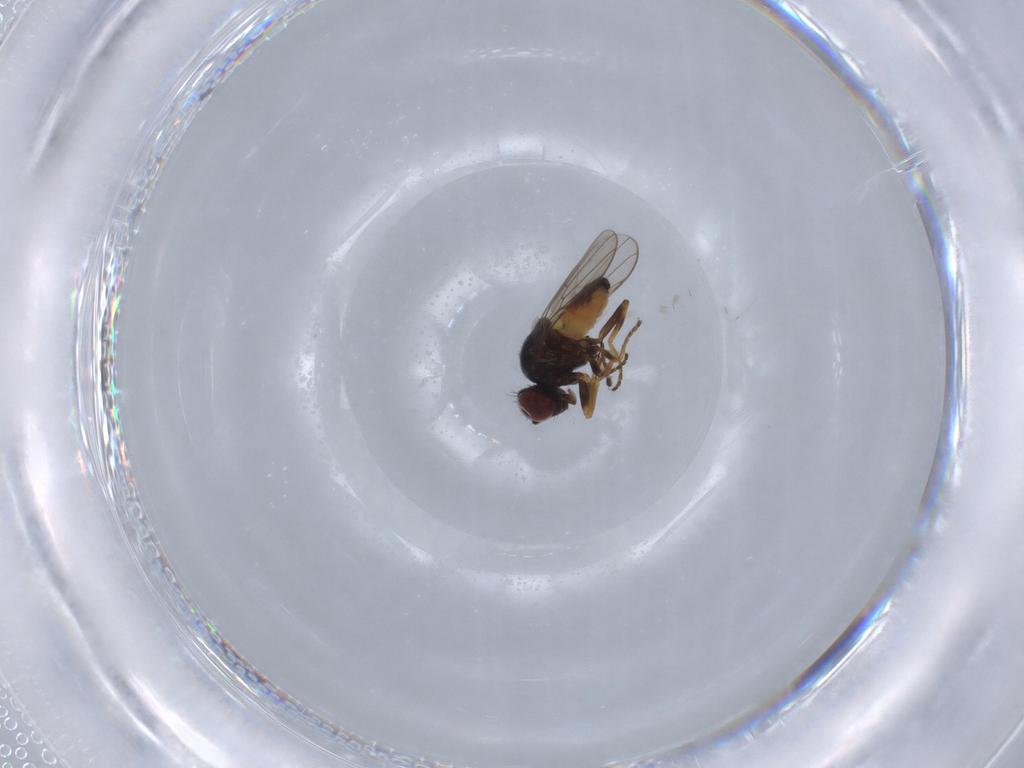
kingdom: Animalia
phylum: Arthropoda
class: Insecta
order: Diptera
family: Chloropidae
